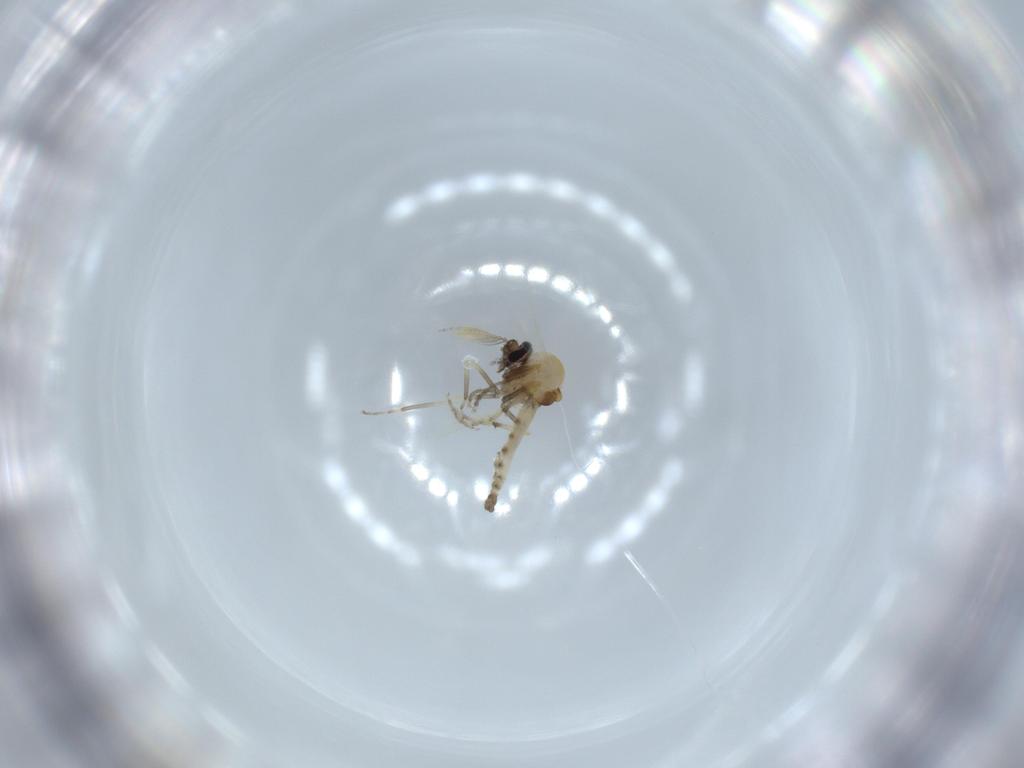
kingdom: Animalia
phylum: Arthropoda
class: Insecta
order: Diptera
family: Ceratopogonidae
